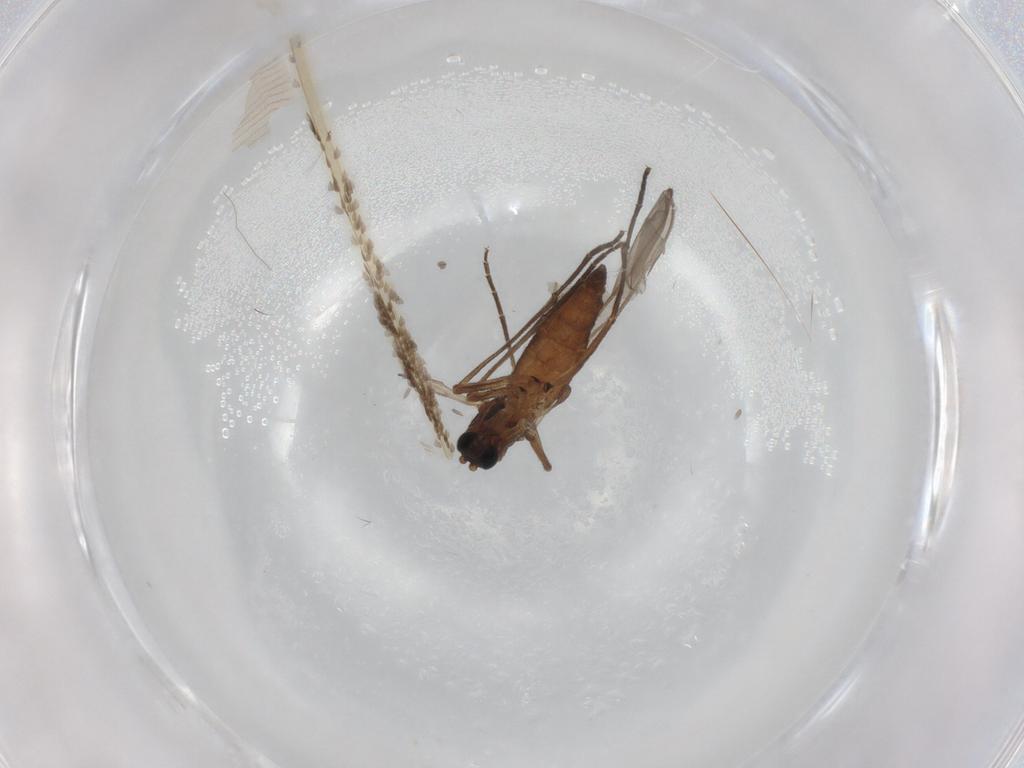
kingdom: Animalia
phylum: Arthropoda
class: Insecta
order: Diptera
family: Sciaridae
